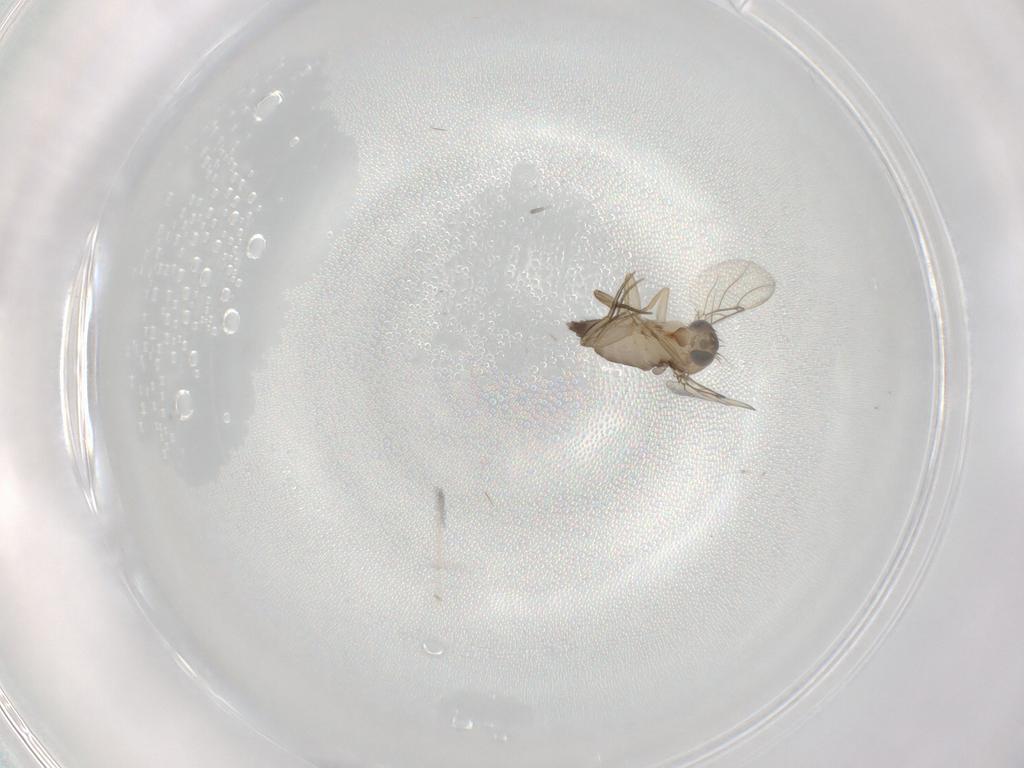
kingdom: Animalia
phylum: Arthropoda
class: Insecta
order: Diptera
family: Phoridae
